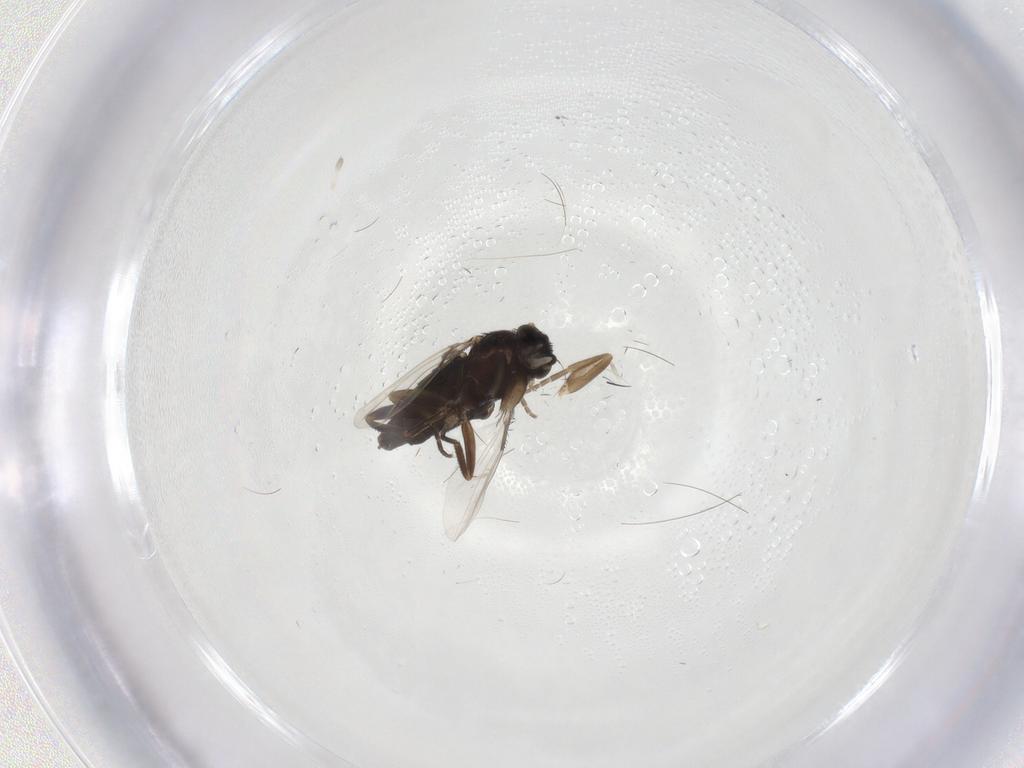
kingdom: Animalia
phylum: Arthropoda
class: Insecta
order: Diptera
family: Phoridae
